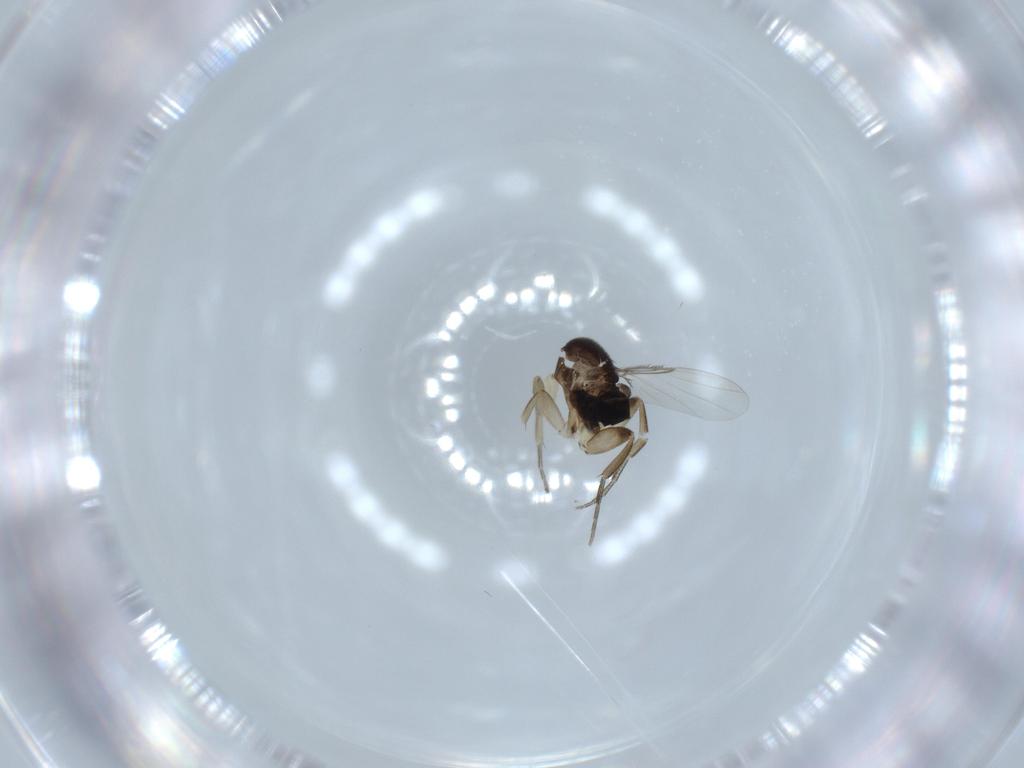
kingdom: Animalia
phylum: Arthropoda
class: Insecta
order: Diptera
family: Phoridae
